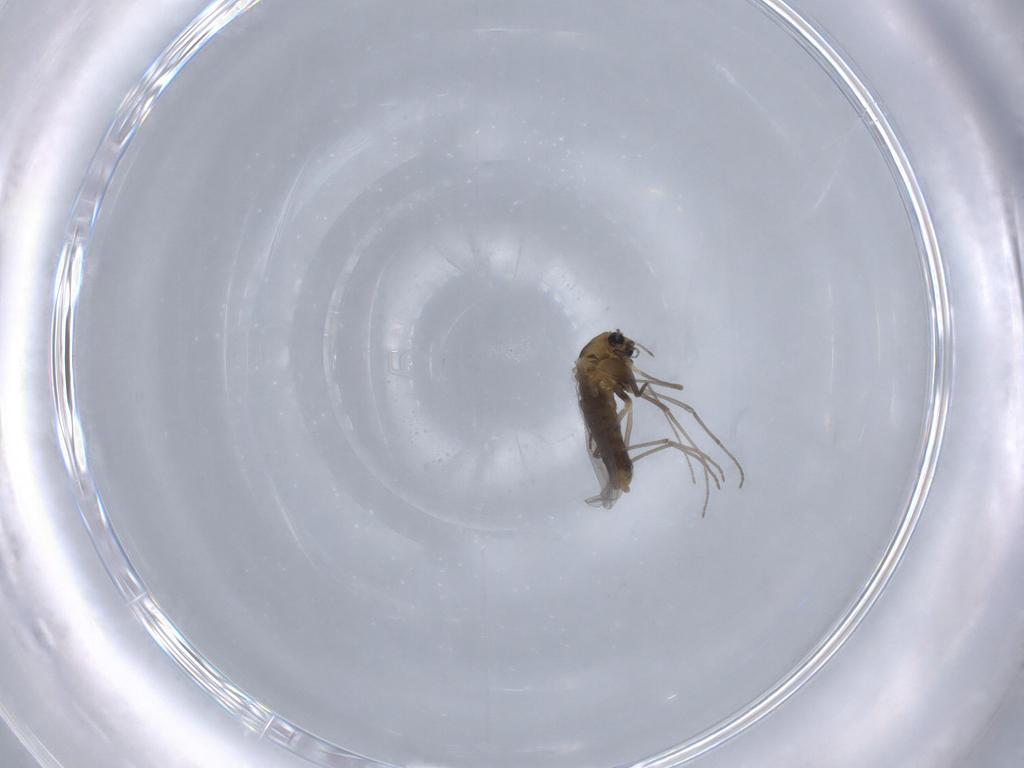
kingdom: Animalia
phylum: Arthropoda
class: Insecta
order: Diptera
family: Chironomidae
